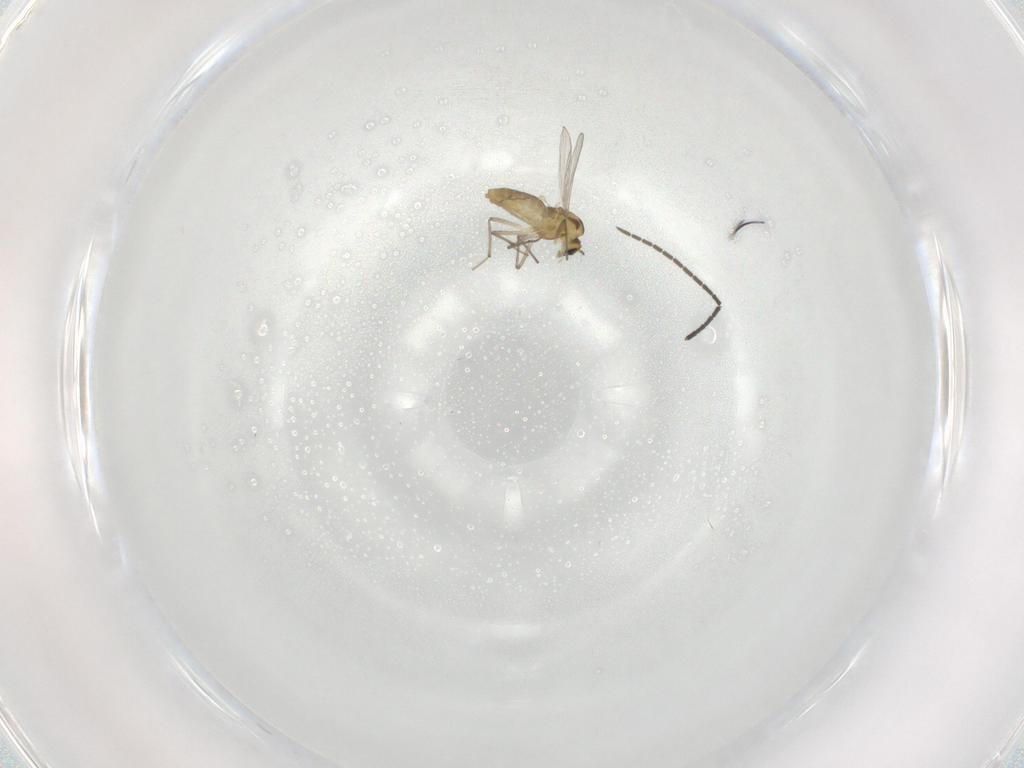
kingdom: Animalia
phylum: Arthropoda
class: Insecta
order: Diptera
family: Chironomidae
